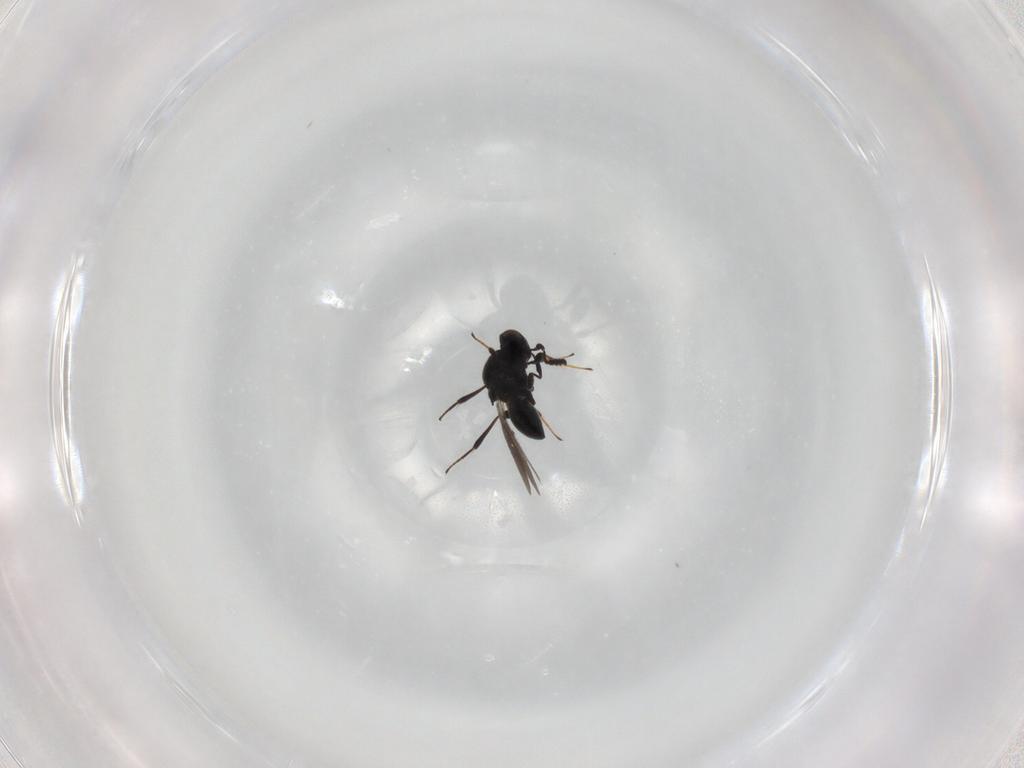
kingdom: Animalia
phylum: Arthropoda
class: Insecta
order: Hymenoptera
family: Platygastridae
